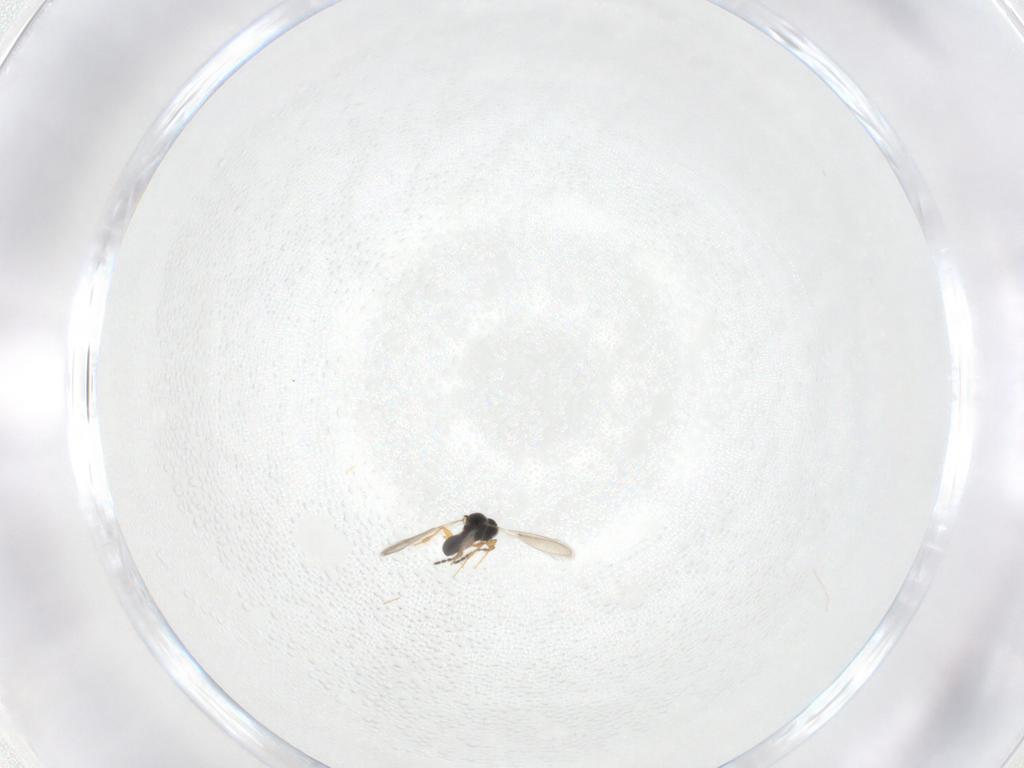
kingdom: Animalia
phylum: Arthropoda
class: Insecta
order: Hymenoptera
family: Platygastridae
